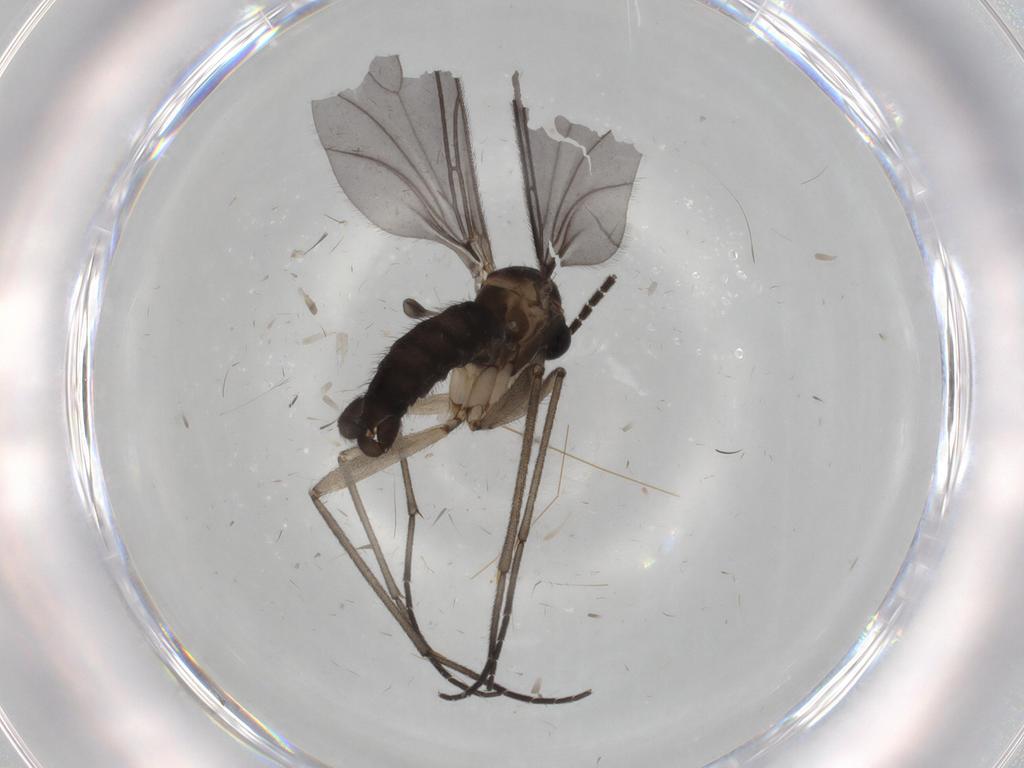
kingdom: Animalia
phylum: Arthropoda
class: Insecta
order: Diptera
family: Sciaridae
